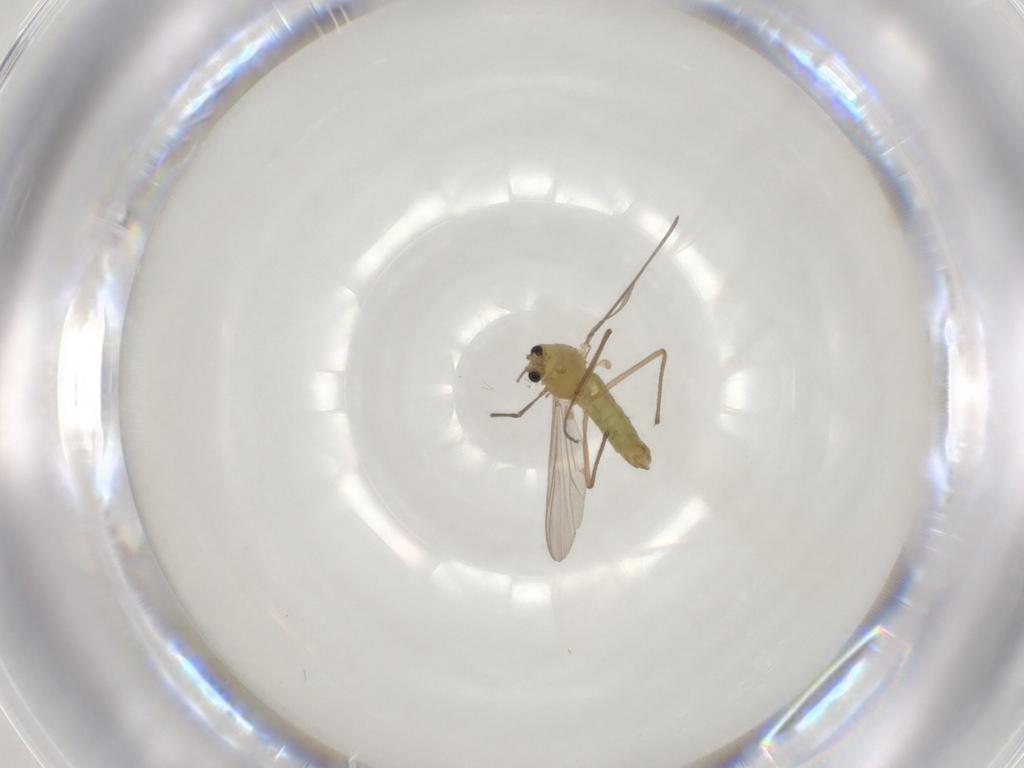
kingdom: Animalia
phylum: Arthropoda
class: Insecta
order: Diptera
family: Chironomidae
